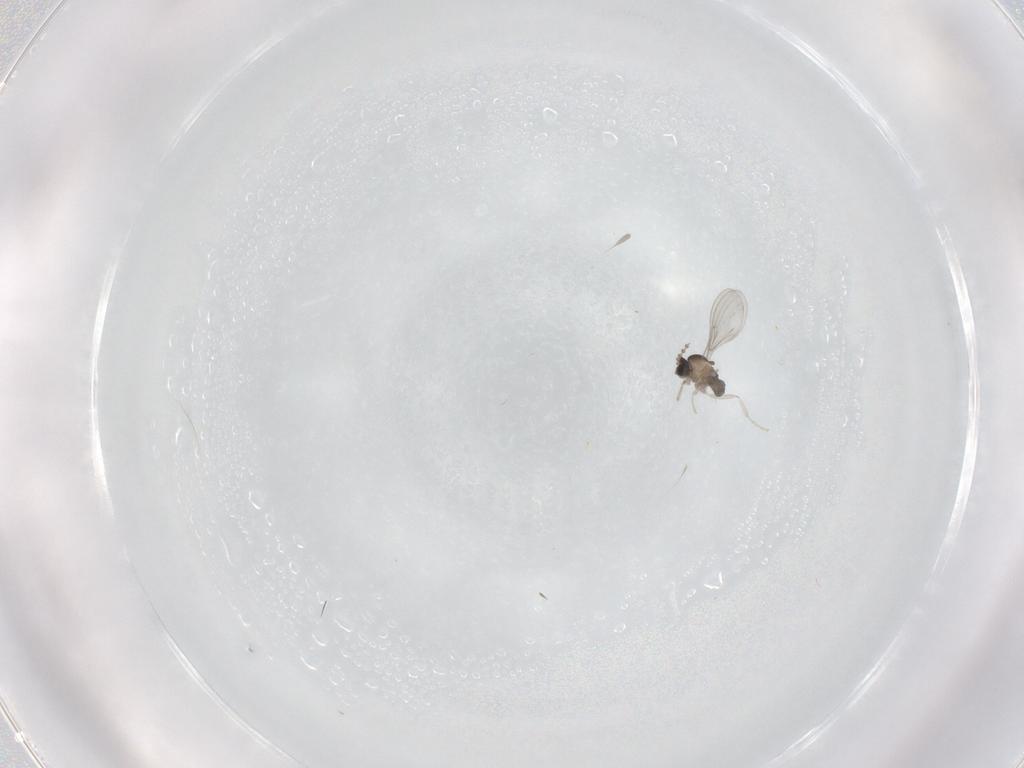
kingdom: Animalia
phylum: Arthropoda
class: Insecta
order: Diptera
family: Cecidomyiidae
